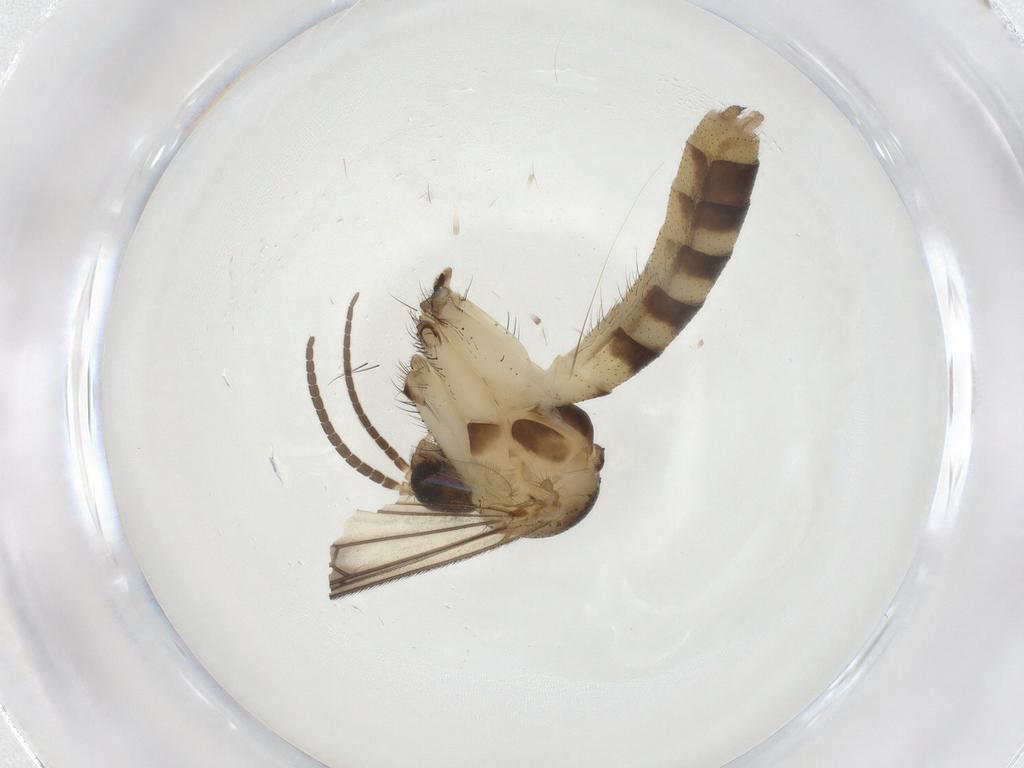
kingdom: Animalia
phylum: Arthropoda
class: Insecta
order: Diptera
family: Mycetophilidae
